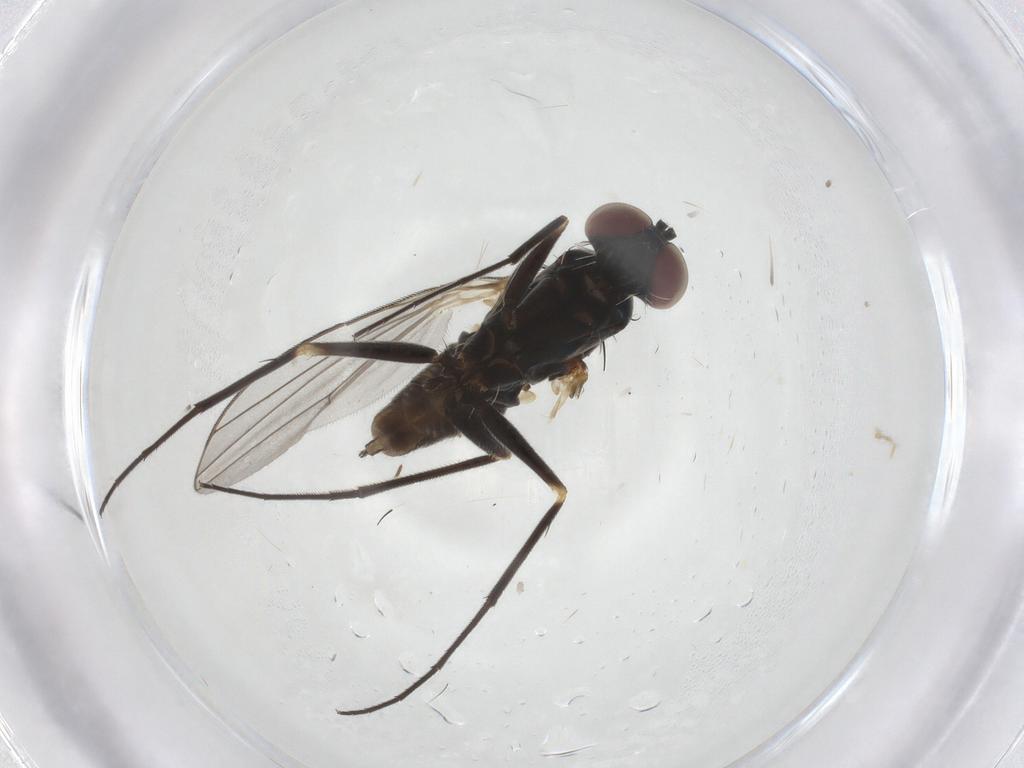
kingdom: Animalia
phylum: Arthropoda
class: Insecta
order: Diptera
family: Dolichopodidae
